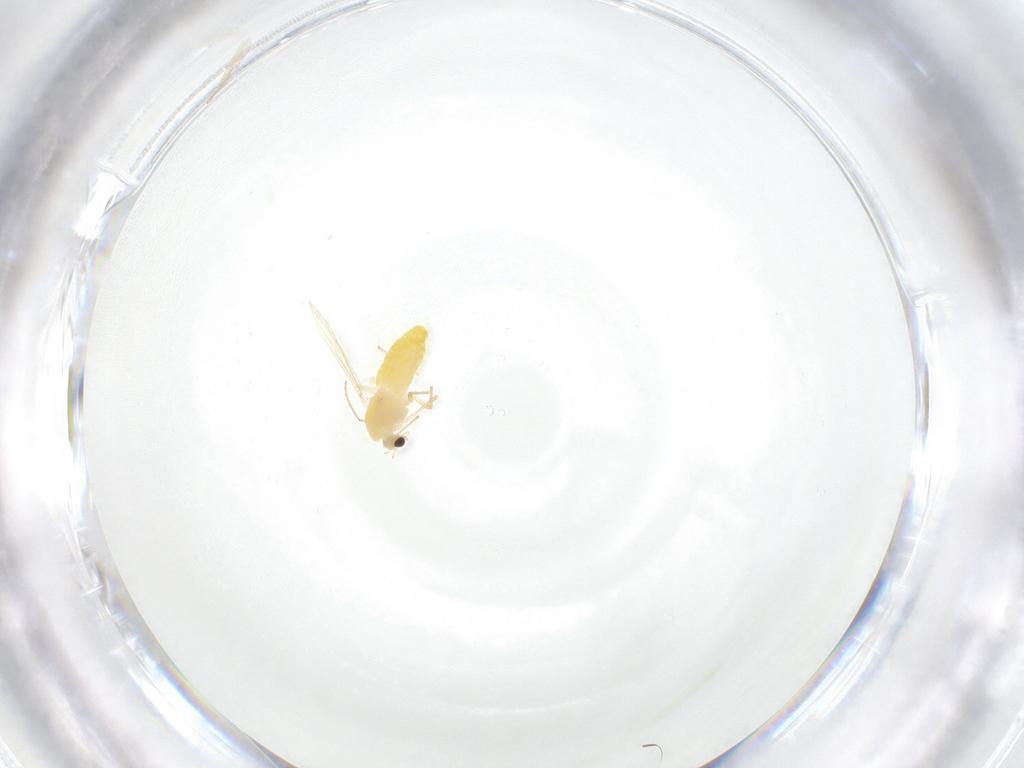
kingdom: Animalia
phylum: Arthropoda
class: Insecta
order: Diptera
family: Chironomidae
